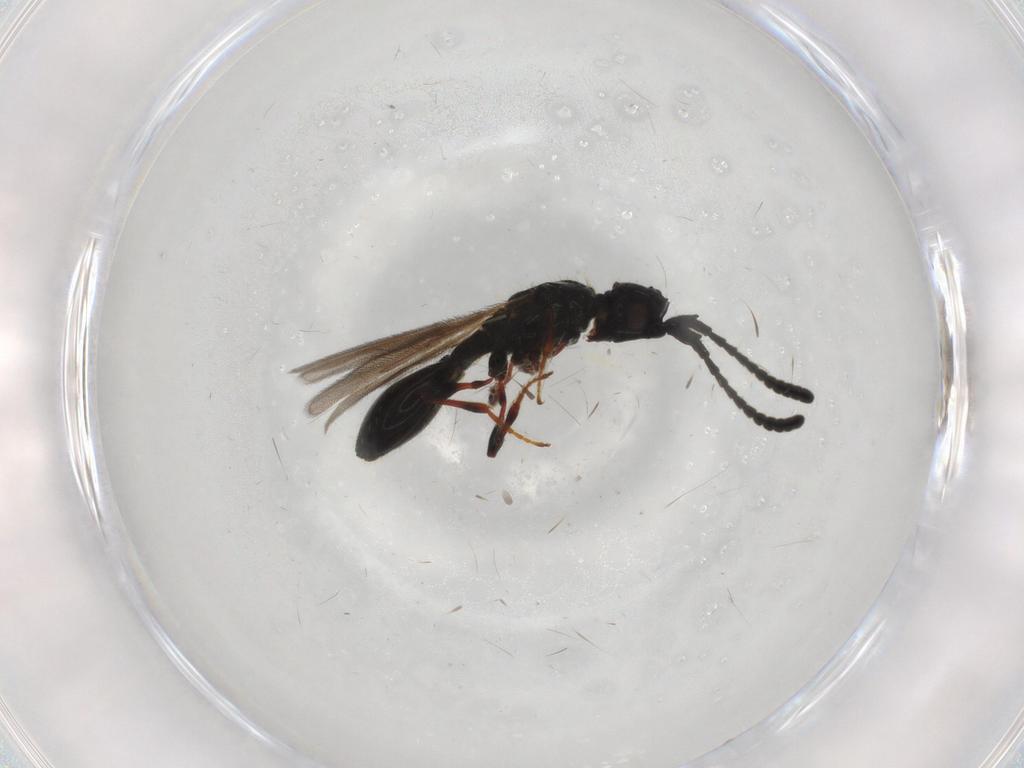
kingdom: Animalia
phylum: Arthropoda
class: Insecta
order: Hymenoptera
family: Diapriidae
